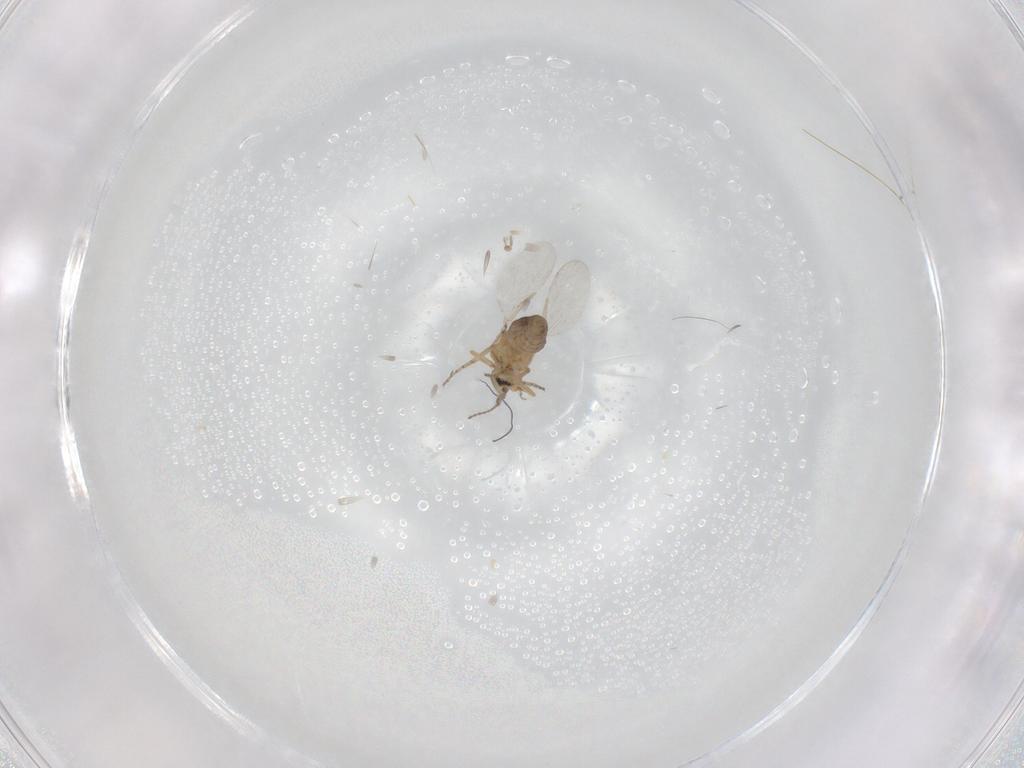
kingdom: Animalia
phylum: Arthropoda
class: Insecta
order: Diptera
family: Ceratopogonidae
